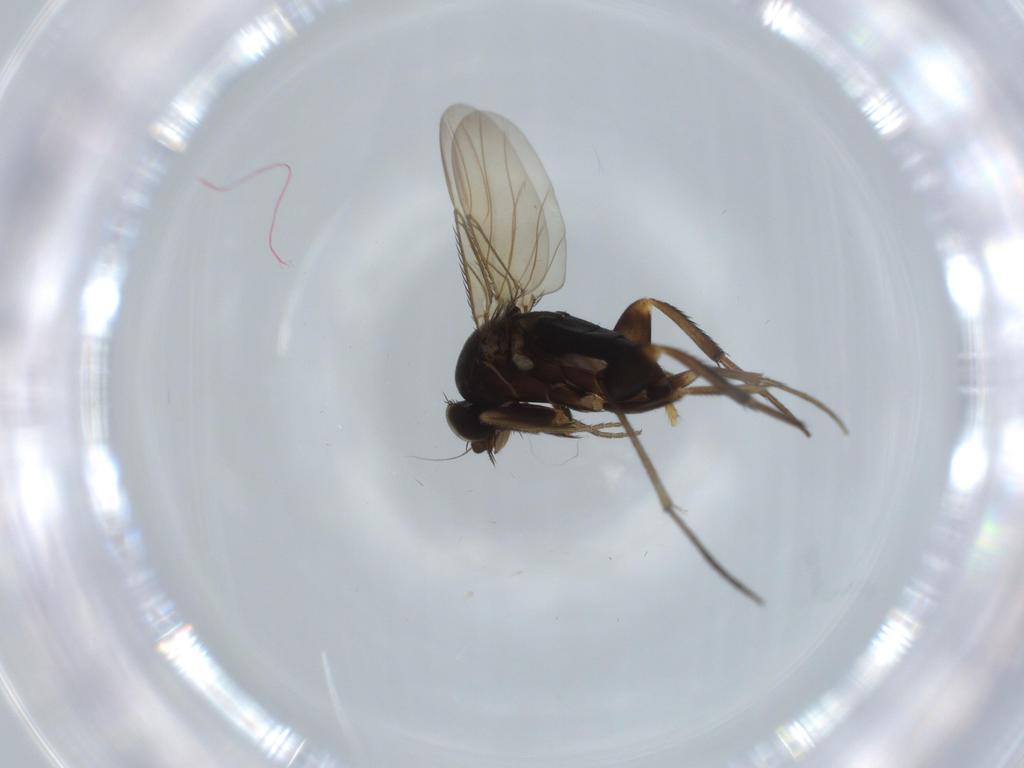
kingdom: Animalia
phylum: Arthropoda
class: Insecta
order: Diptera
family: Phoridae
